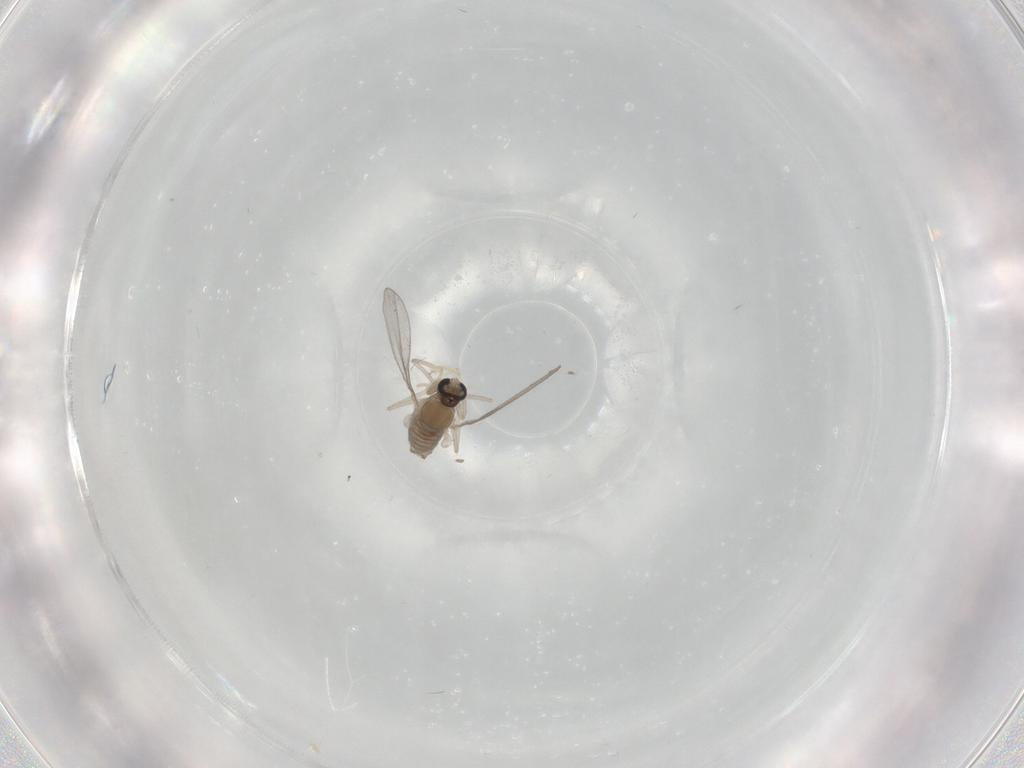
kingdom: Animalia
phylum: Arthropoda
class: Insecta
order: Diptera
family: Cecidomyiidae
